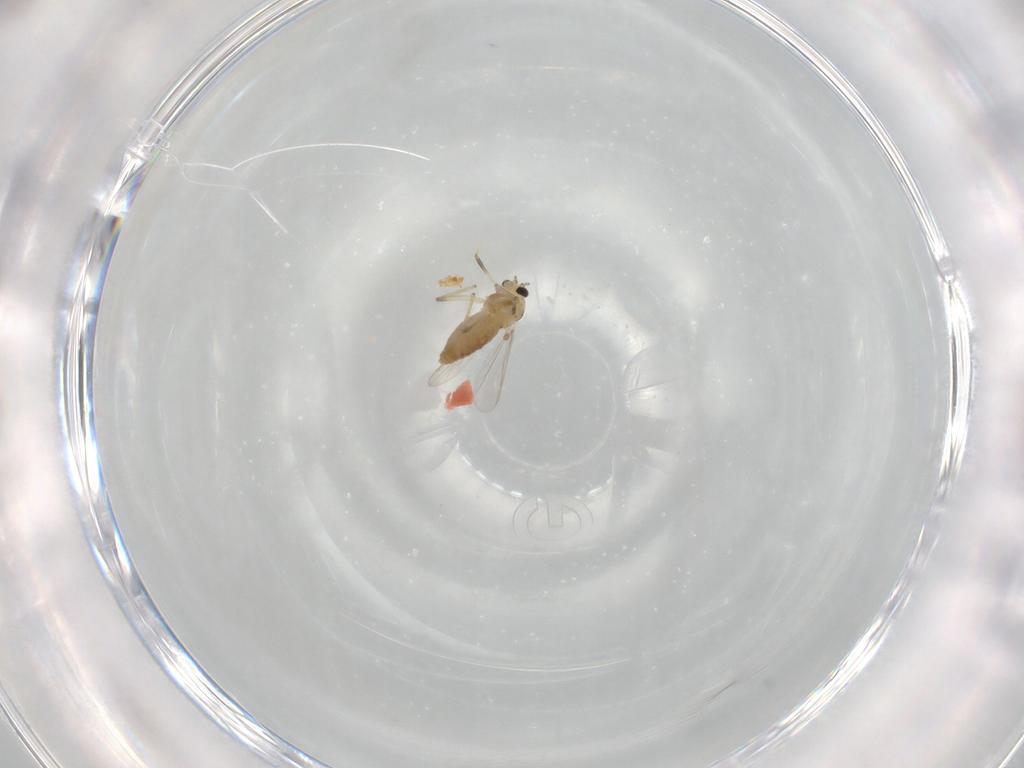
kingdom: Animalia
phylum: Arthropoda
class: Insecta
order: Diptera
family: Chironomidae
